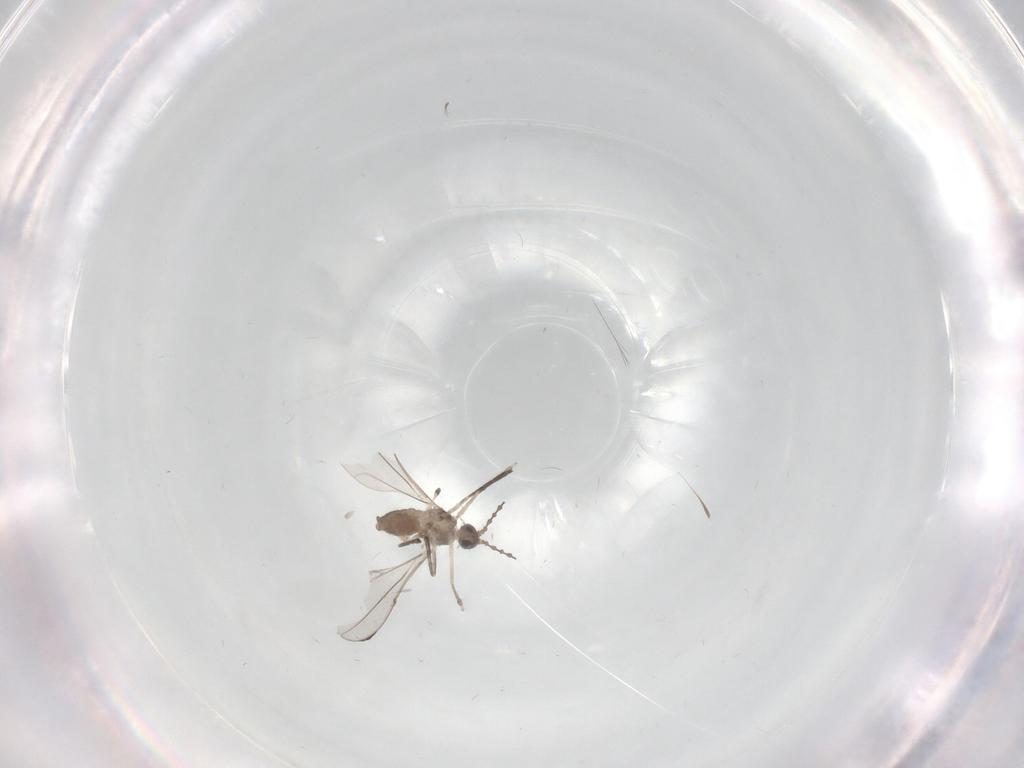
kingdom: Animalia
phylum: Arthropoda
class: Insecta
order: Diptera
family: Cecidomyiidae
